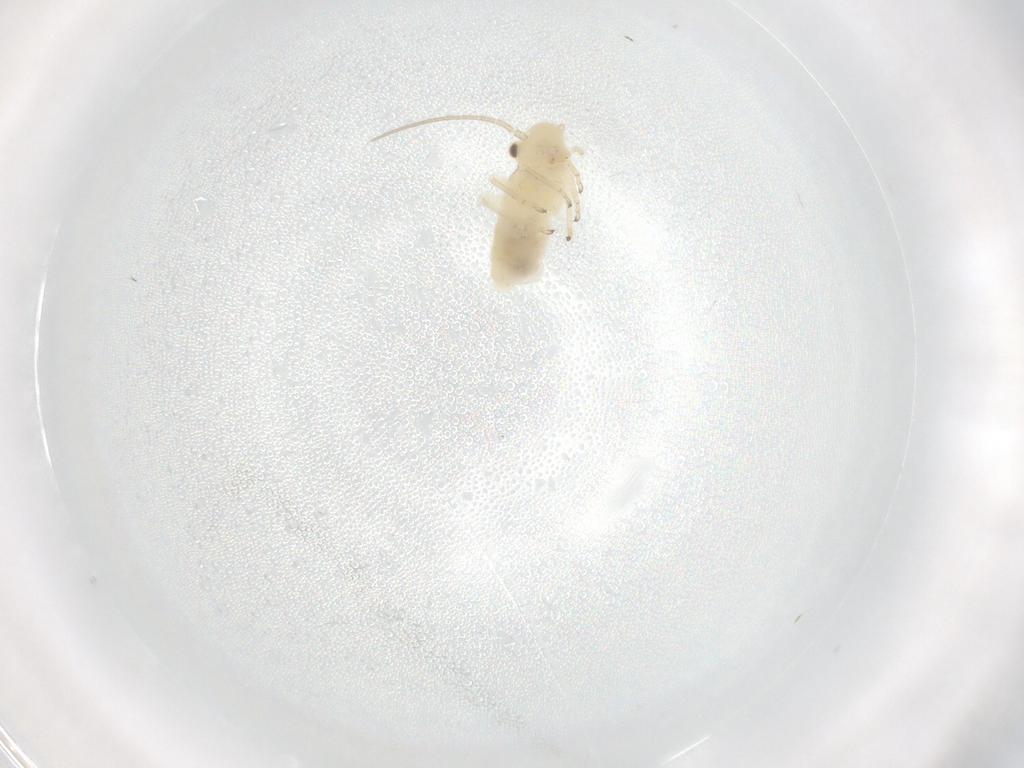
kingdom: Animalia
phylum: Arthropoda
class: Insecta
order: Psocodea
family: Caeciliusidae
